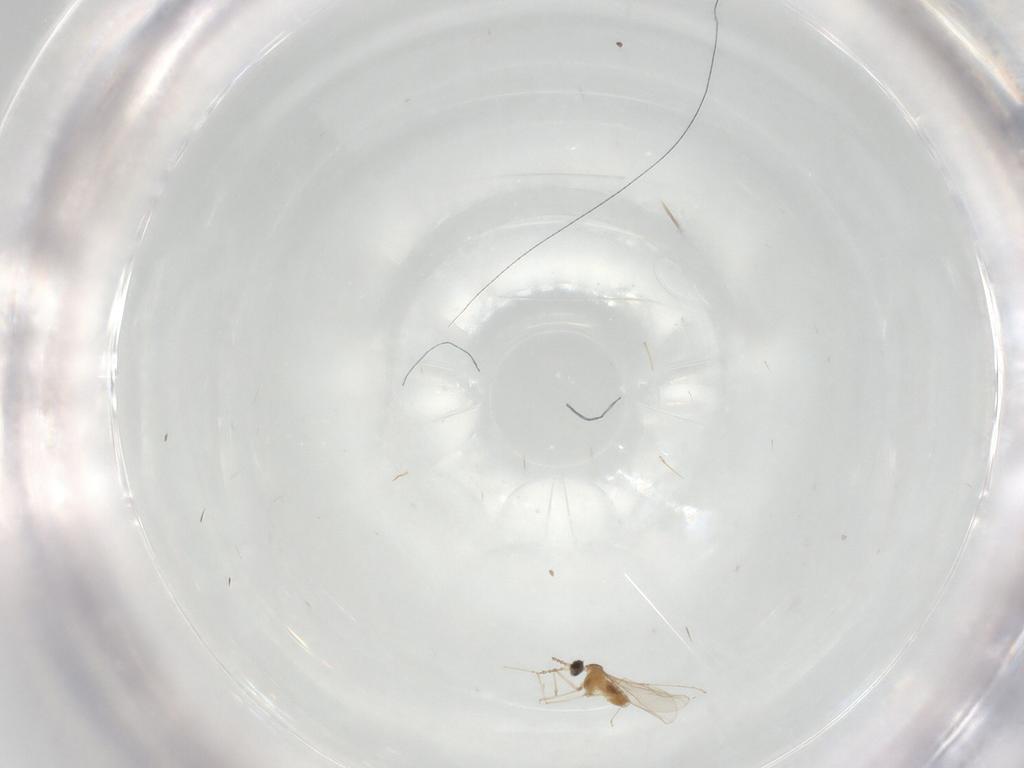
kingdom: Animalia
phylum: Arthropoda
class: Insecta
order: Diptera
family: Cecidomyiidae
